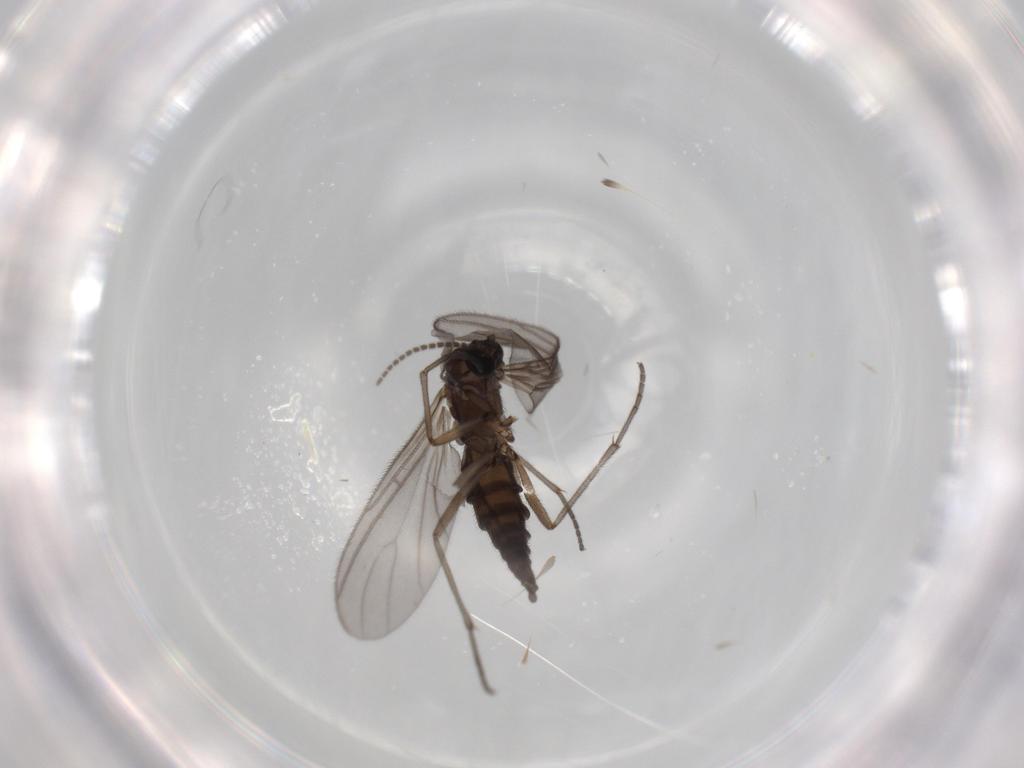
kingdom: Animalia
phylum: Arthropoda
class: Insecta
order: Diptera
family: Sciaridae
